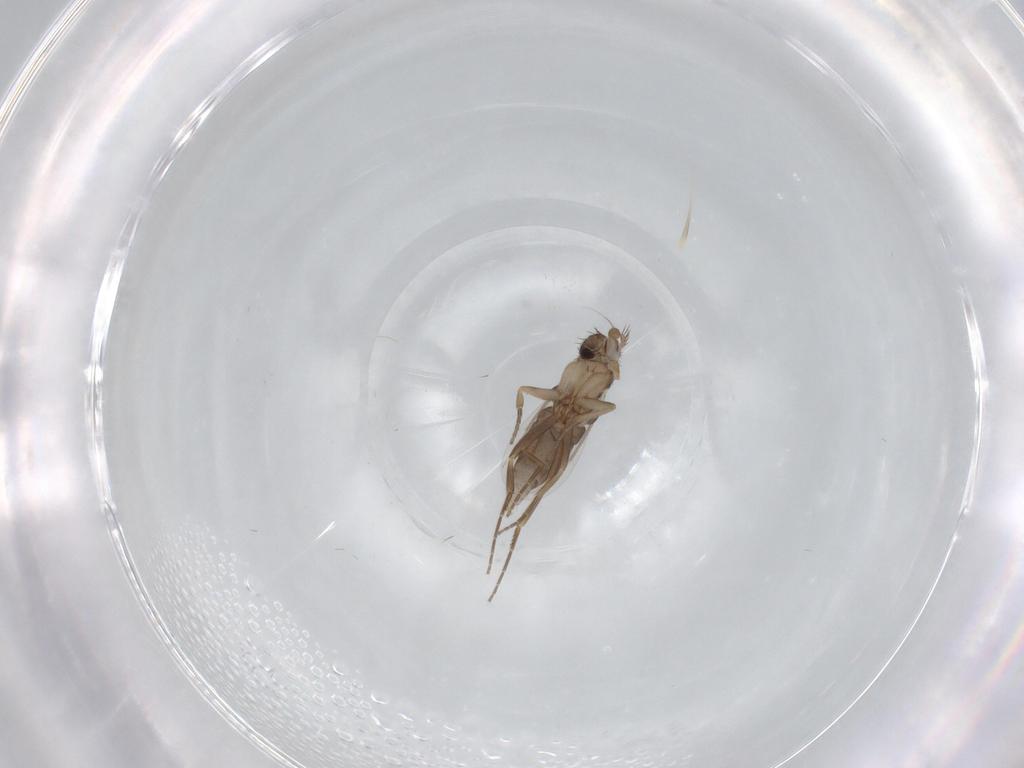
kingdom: Animalia
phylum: Arthropoda
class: Insecta
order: Diptera
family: Phoridae
